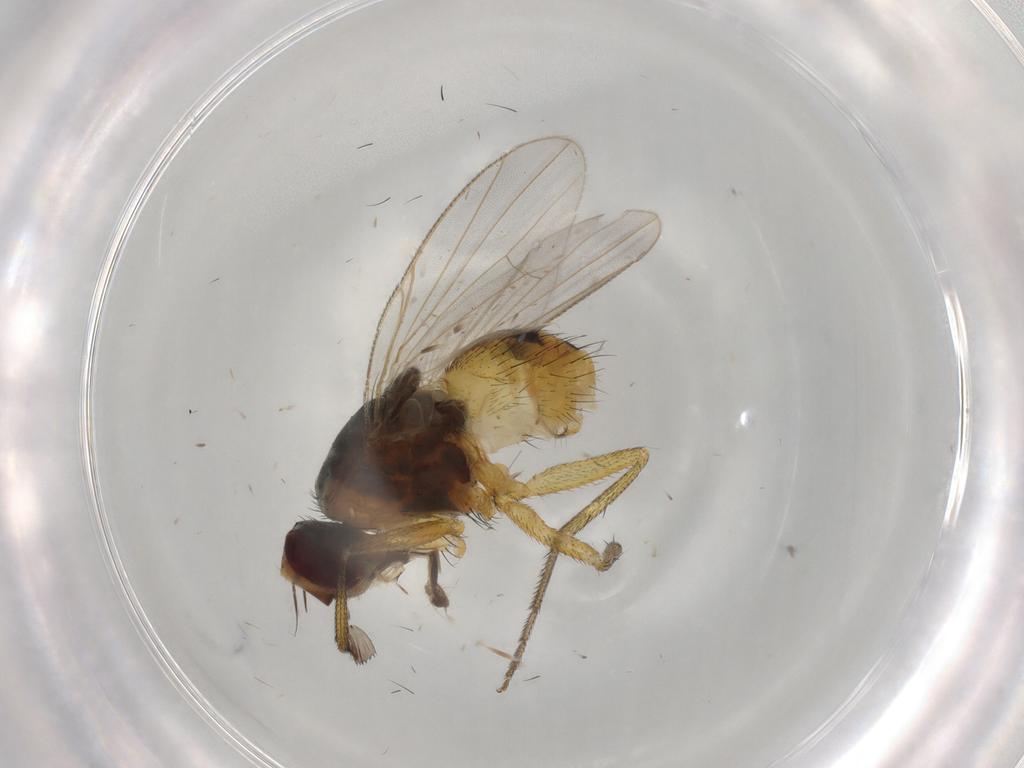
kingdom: Animalia
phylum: Arthropoda
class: Insecta
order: Diptera
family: Muscidae
